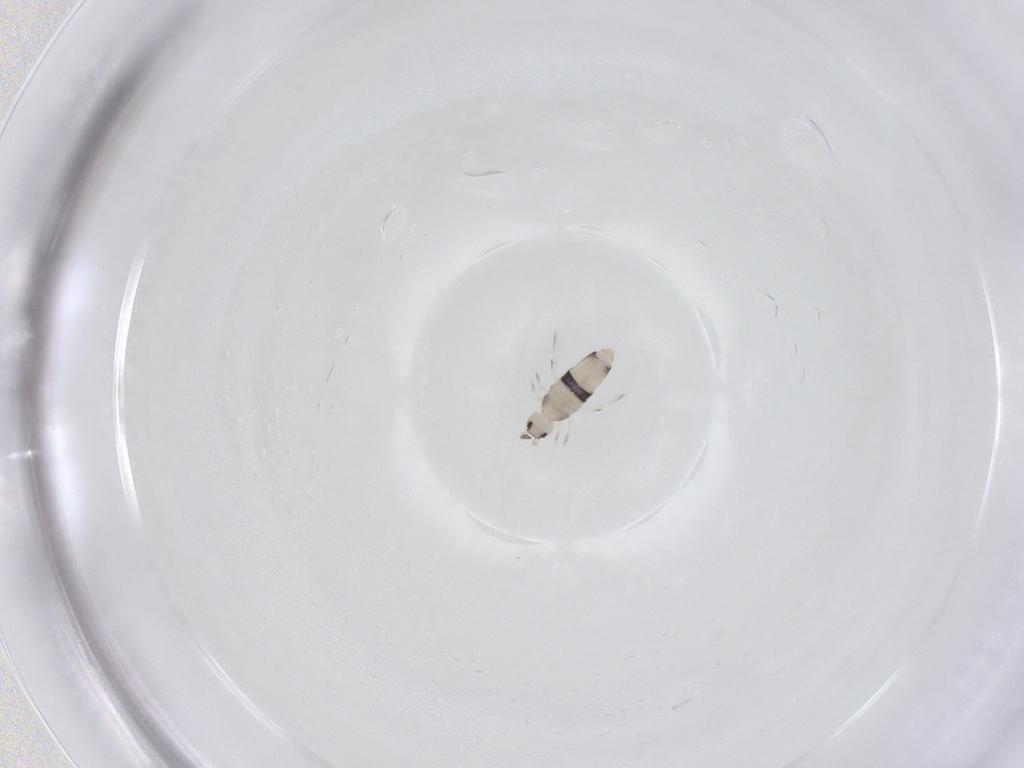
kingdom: Animalia
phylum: Arthropoda
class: Collembola
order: Entomobryomorpha
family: Entomobryidae
